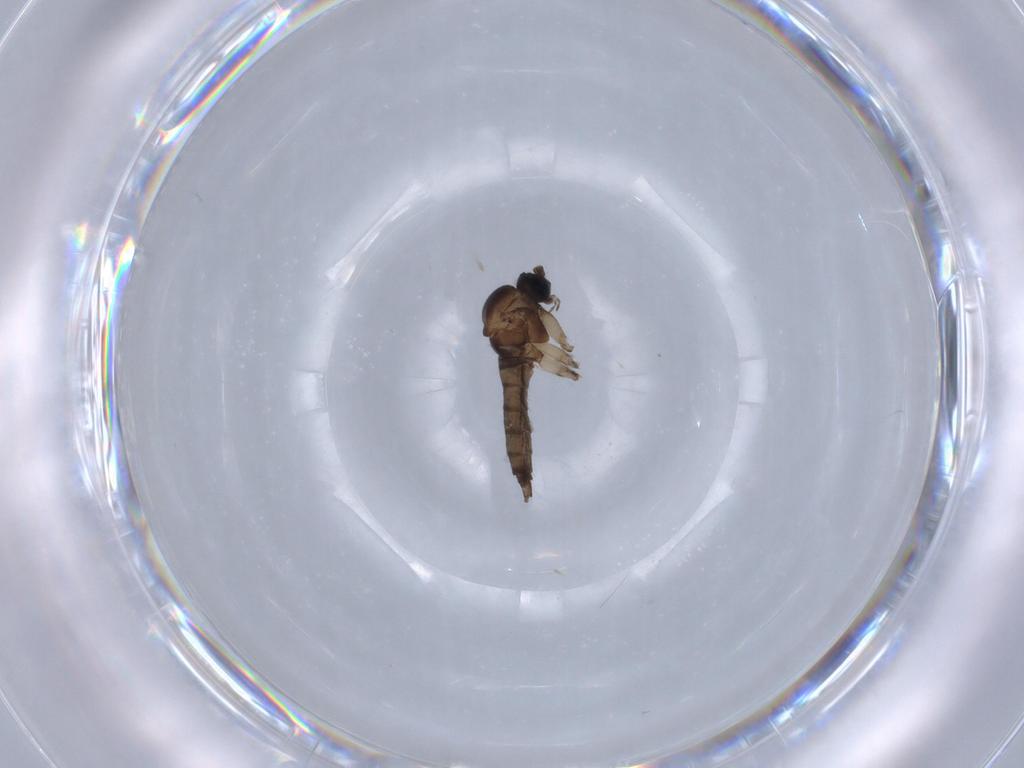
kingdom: Animalia
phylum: Arthropoda
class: Insecta
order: Diptera
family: Sciaridae
